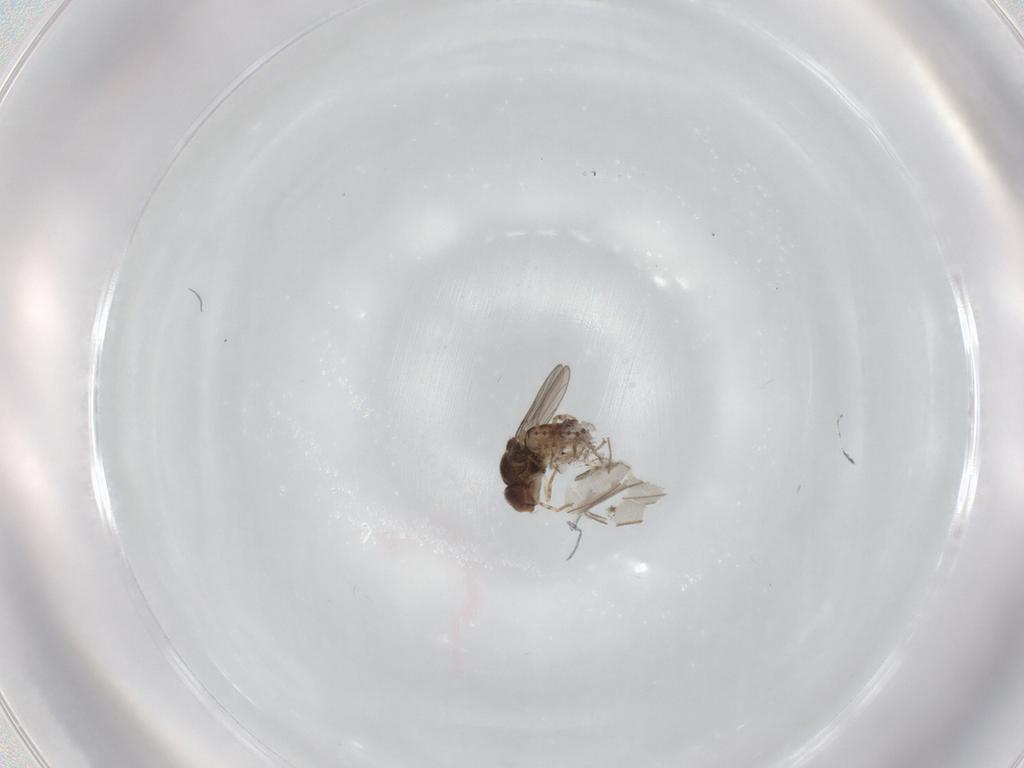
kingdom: Animalia
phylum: Arthropoda
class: Insecta
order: Diptera
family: Chloropidae
